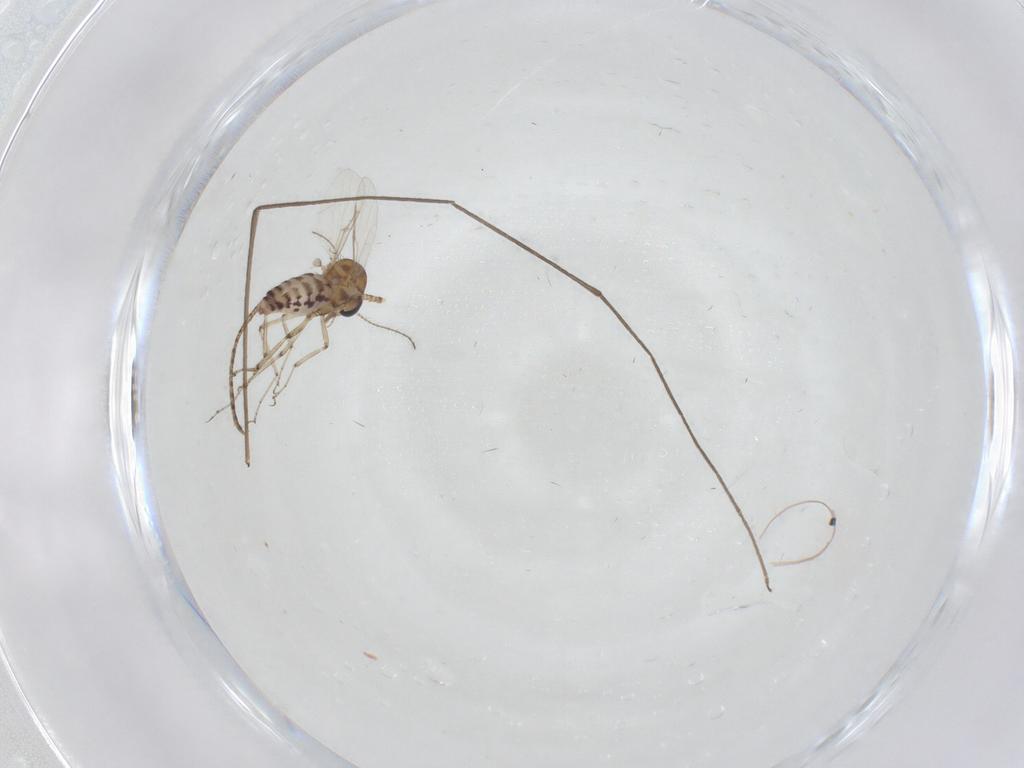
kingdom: Animalia
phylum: Arthropoda
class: Insecta
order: Diptera
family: Ceratopogonidae
